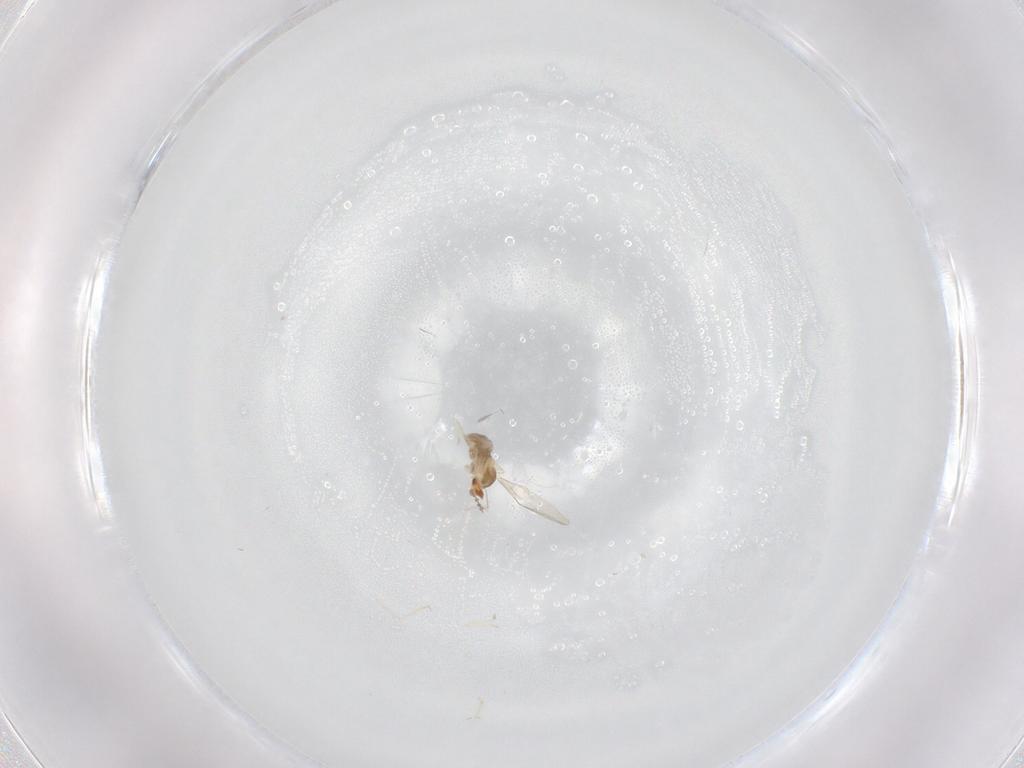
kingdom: Animalia
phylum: Arthropoda
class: Insecta
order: Diptera
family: Cecidomyiidae
